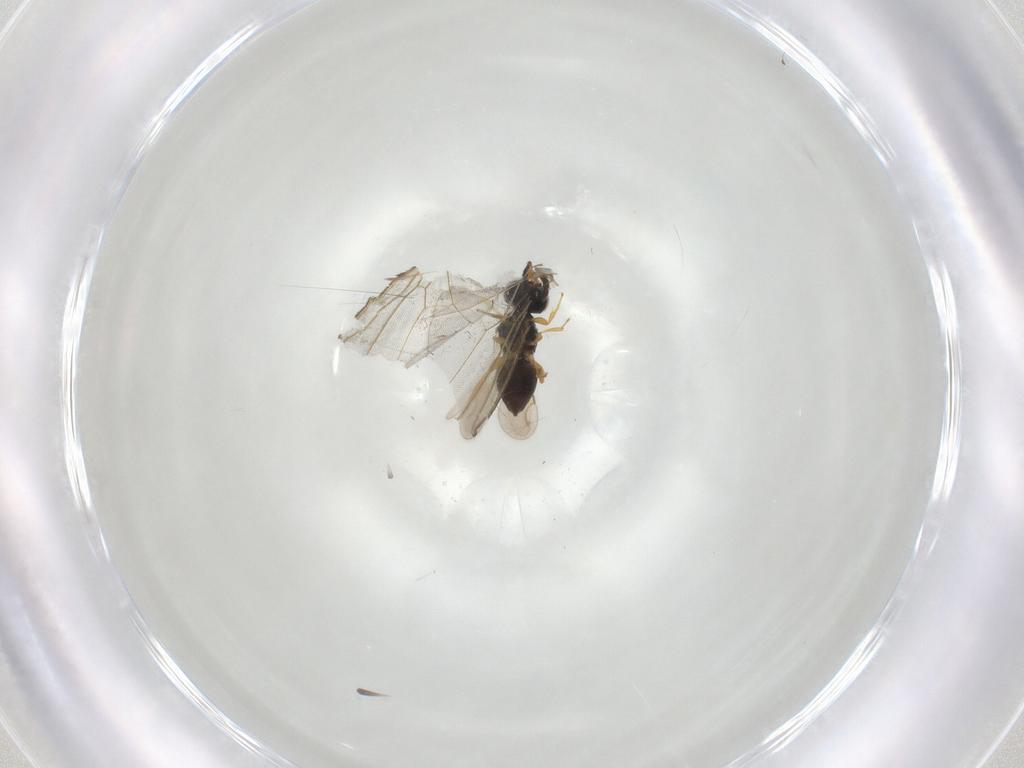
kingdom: Animalia
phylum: Arthropoda
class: Insecta
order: Hymenoptera
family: Ceraphronidae
